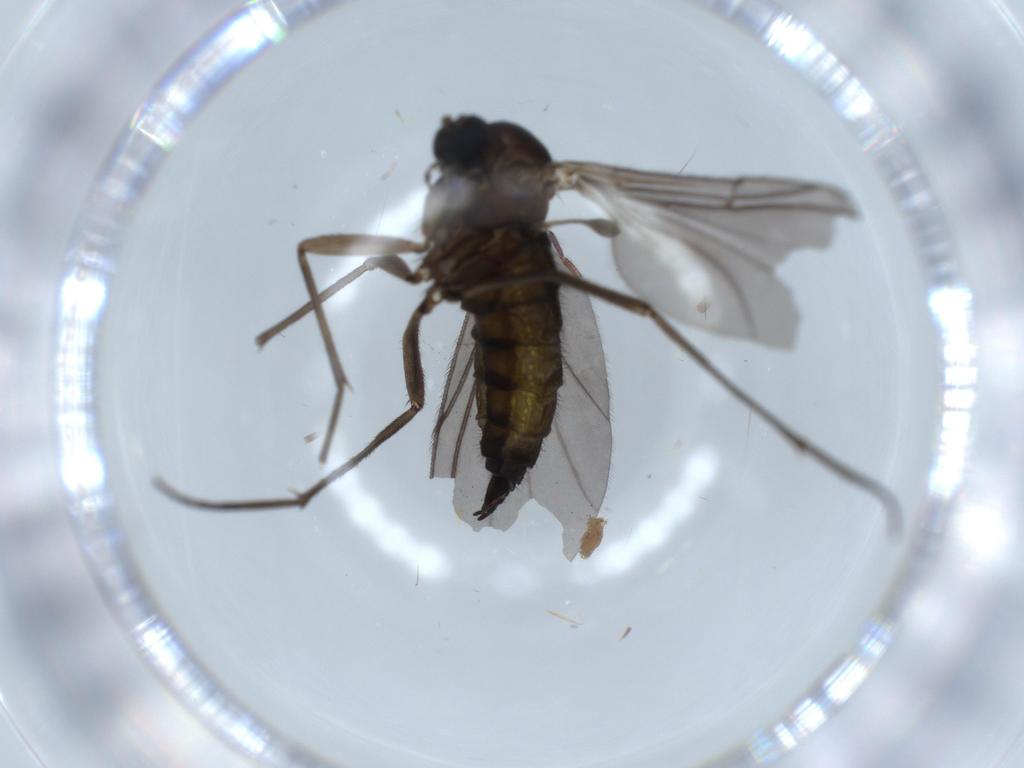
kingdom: Animalia
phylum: Arthropoda
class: Insecta
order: Diptera
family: Sciaridae
